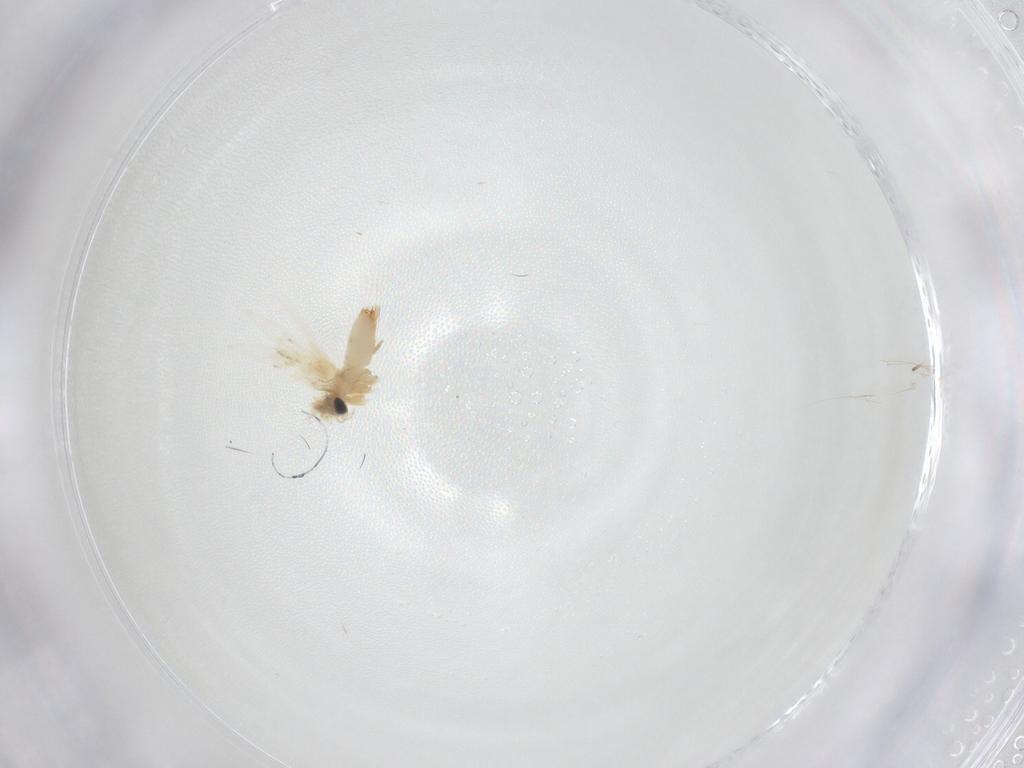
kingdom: Animalia
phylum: Arthropoda
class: Insecta
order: Lepidoptera
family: Crambidae
